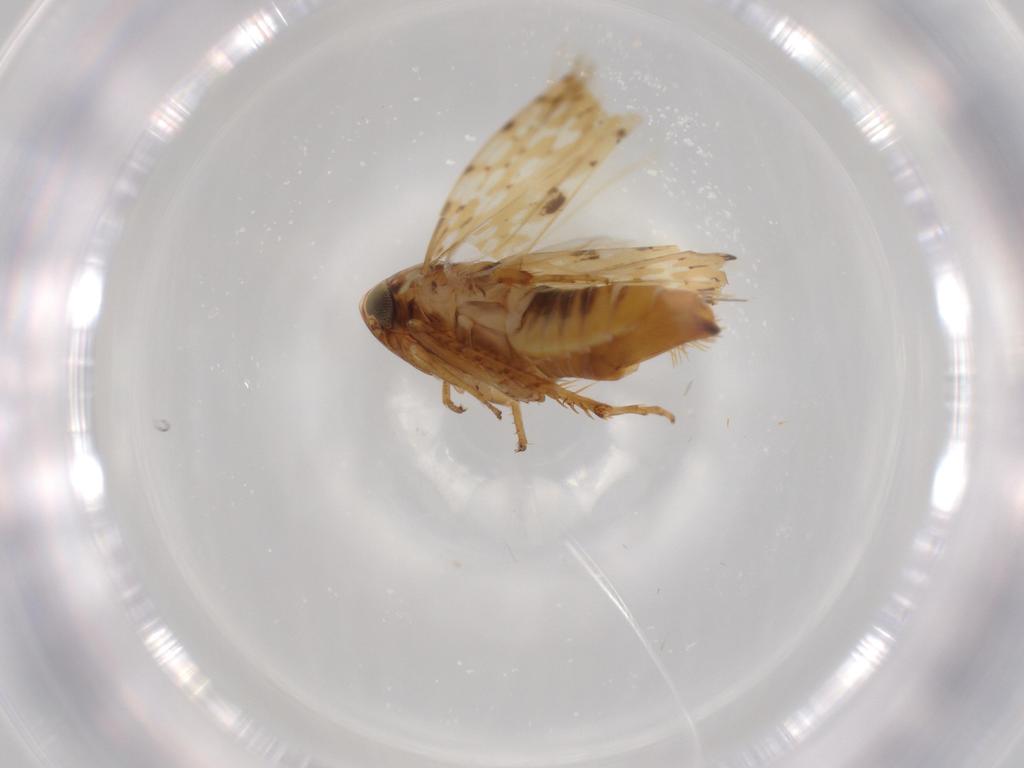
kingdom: Animalia
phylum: Arthropoda
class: Insecta
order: Hemiptera
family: Cicadellidae
